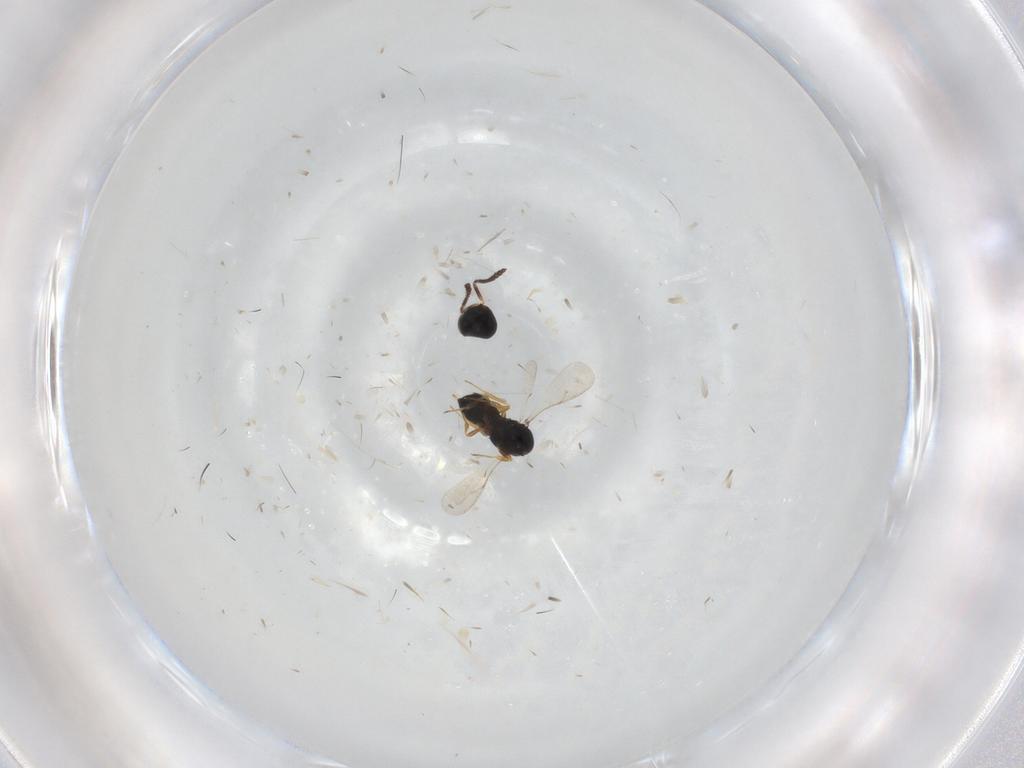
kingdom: Animalia
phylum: Arthropoda
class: Insecta
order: Hymenoptera
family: Scelionidae
